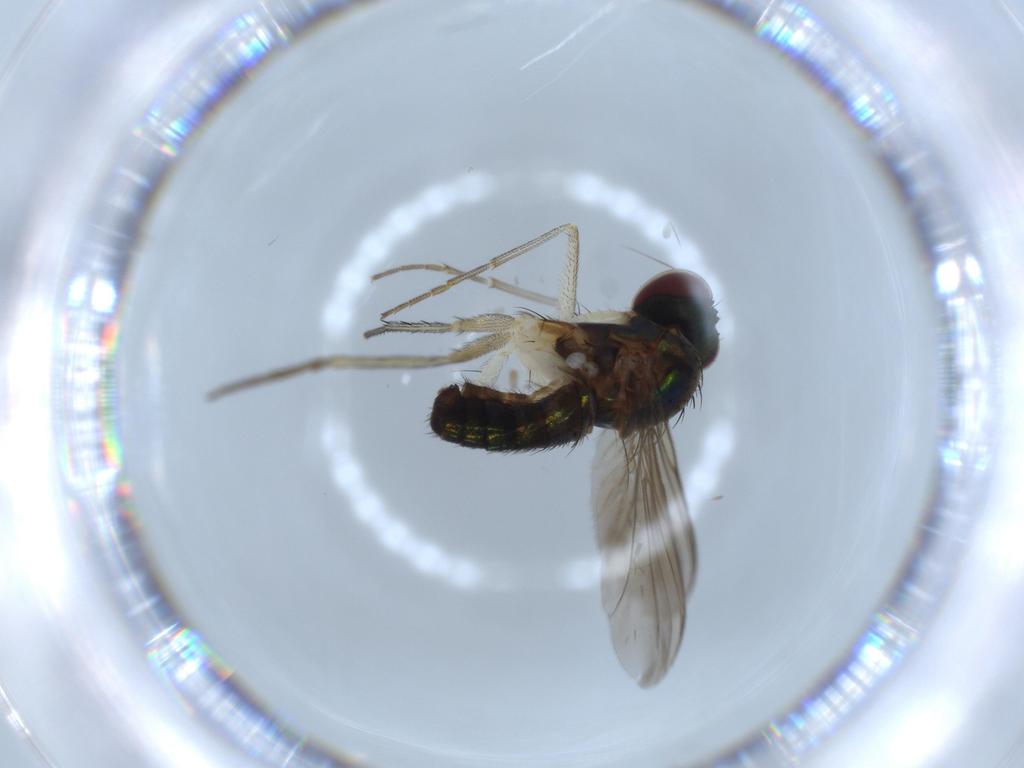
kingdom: Animalia
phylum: Arthropoda
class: Insecta
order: Diptera
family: Dolichopodidae
